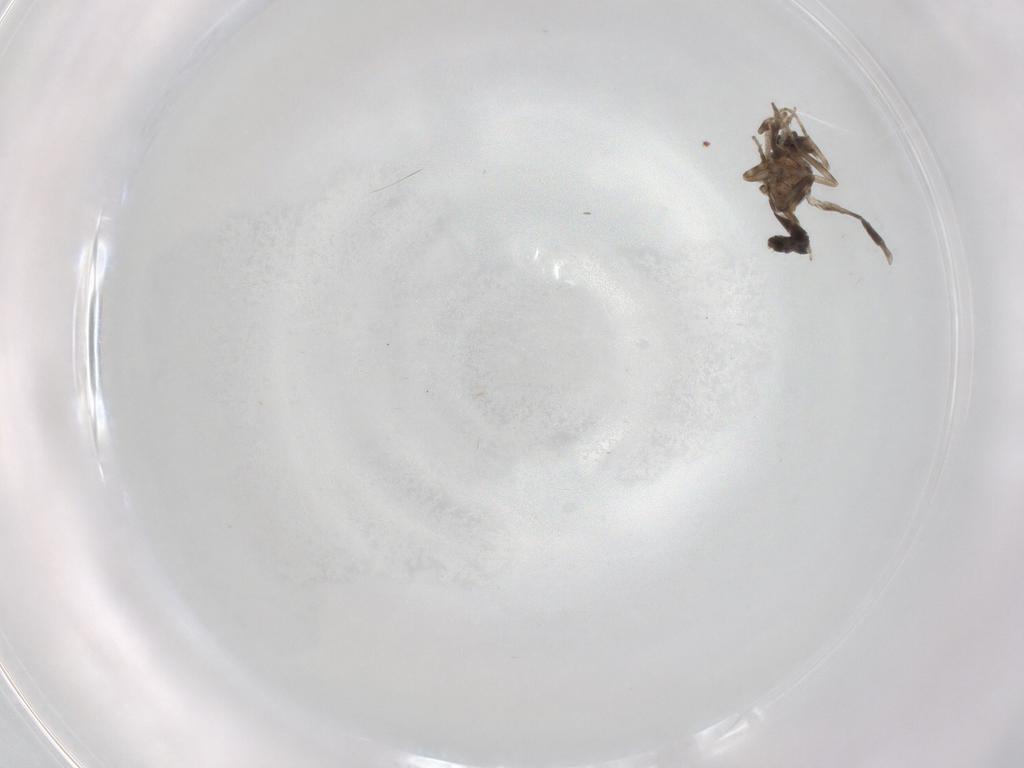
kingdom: Animalia
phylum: Arthropoda
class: Insecta
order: Diptera
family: Ceratopogonidae
